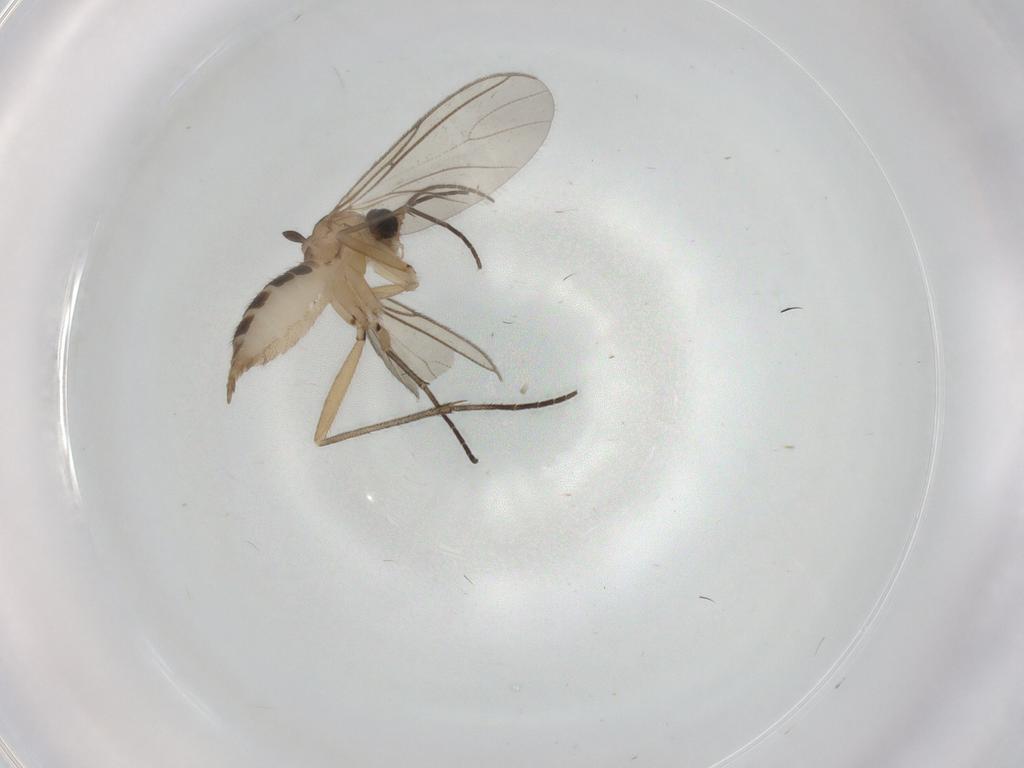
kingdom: Animalia
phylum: Arthropoda
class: Insecta
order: Diptera
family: Sciaridae
